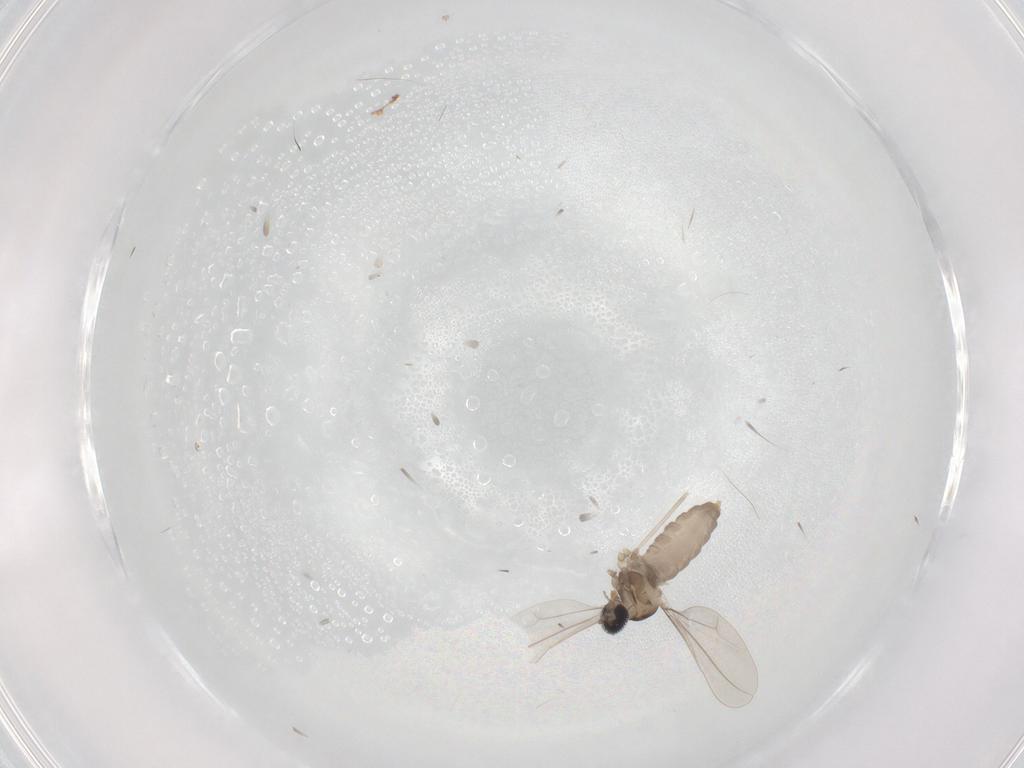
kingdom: Animalia
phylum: Arthropoda
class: Insecta
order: Diptera
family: Cecidomyiidae
